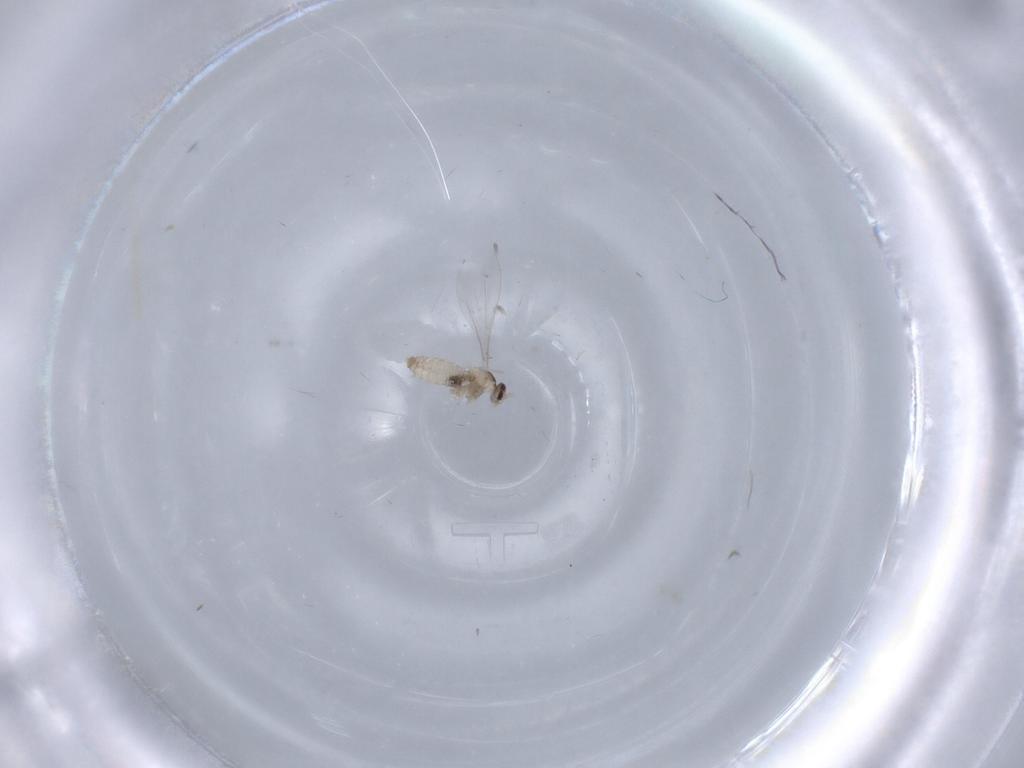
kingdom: Animalia
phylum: Arthropoda
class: Insecta
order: Diptera
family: Cecidomyiidae
